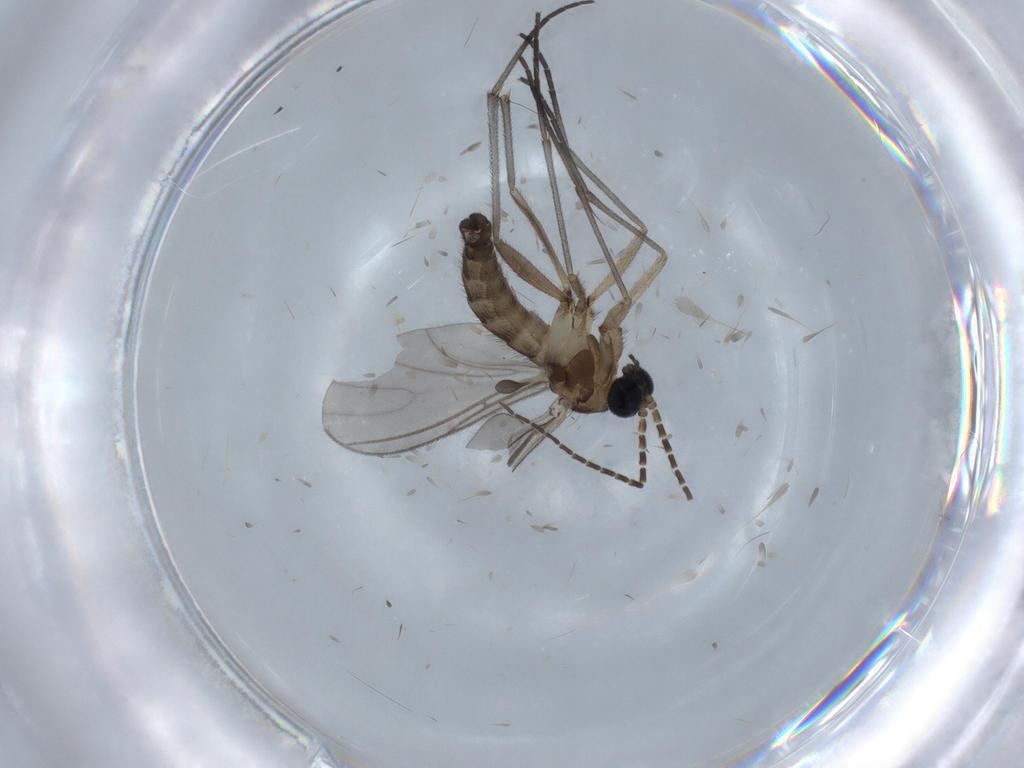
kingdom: Animalia
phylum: Arthropoda
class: Insecta
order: Diptera
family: Sciaridae
